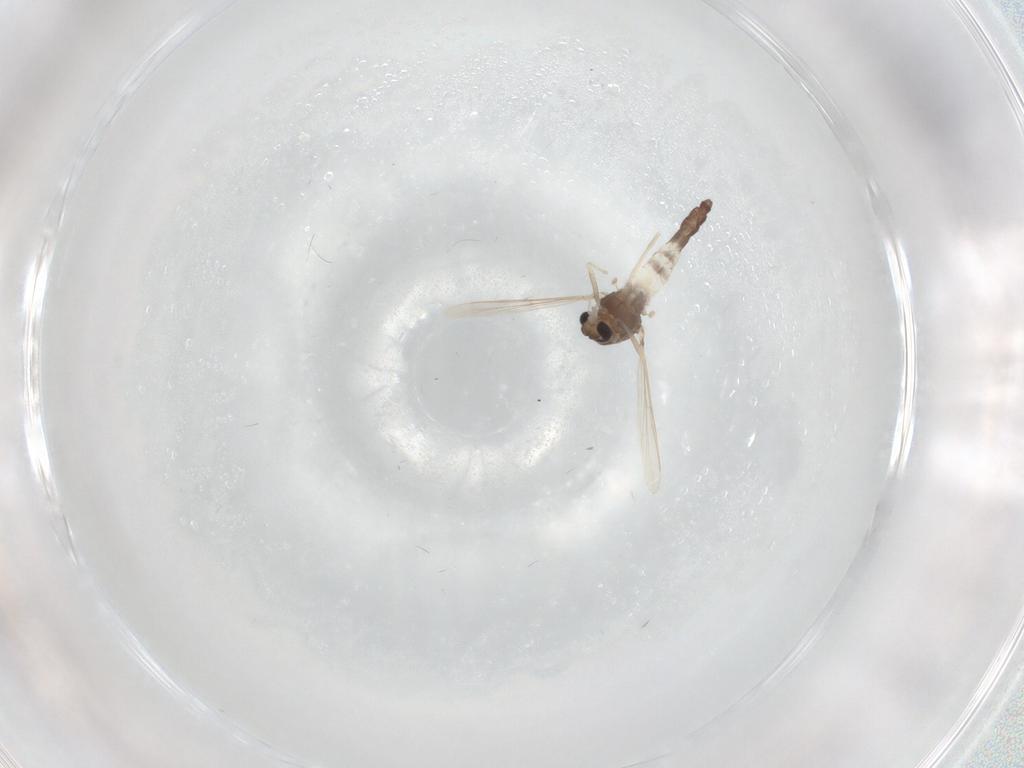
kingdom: Animalia
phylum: Arthropoda
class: Insecta
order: Diptera
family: Chironomidae
